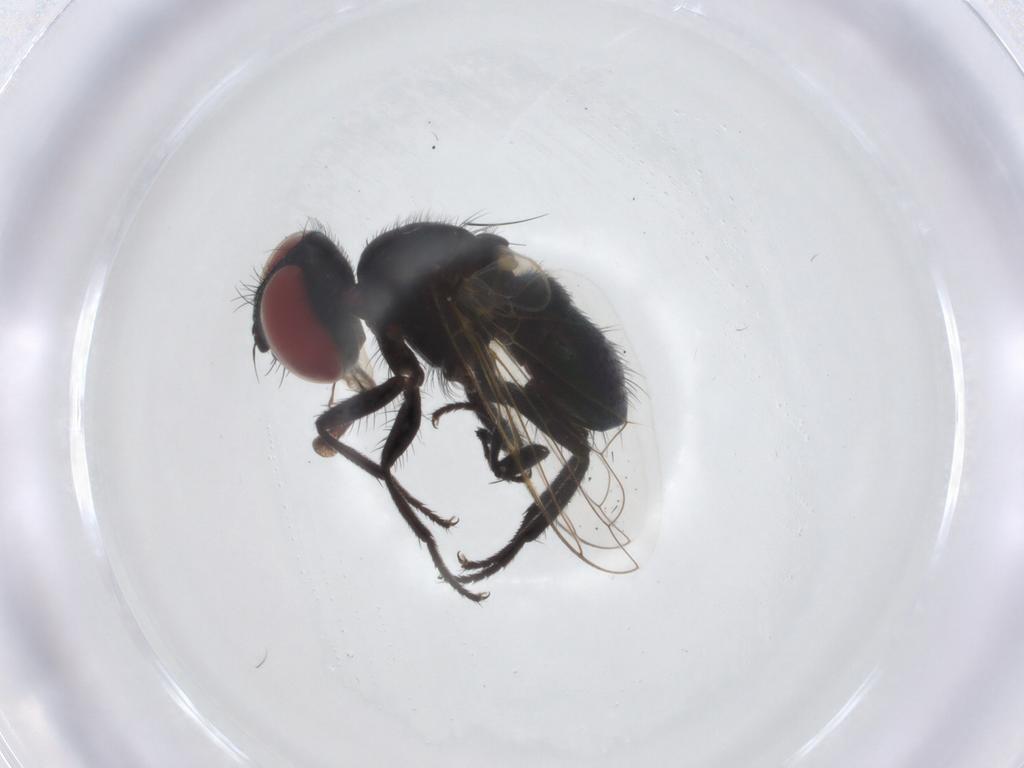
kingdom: Animalia
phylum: Arthropoda
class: Insecta
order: Diptera
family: Tachinidae
